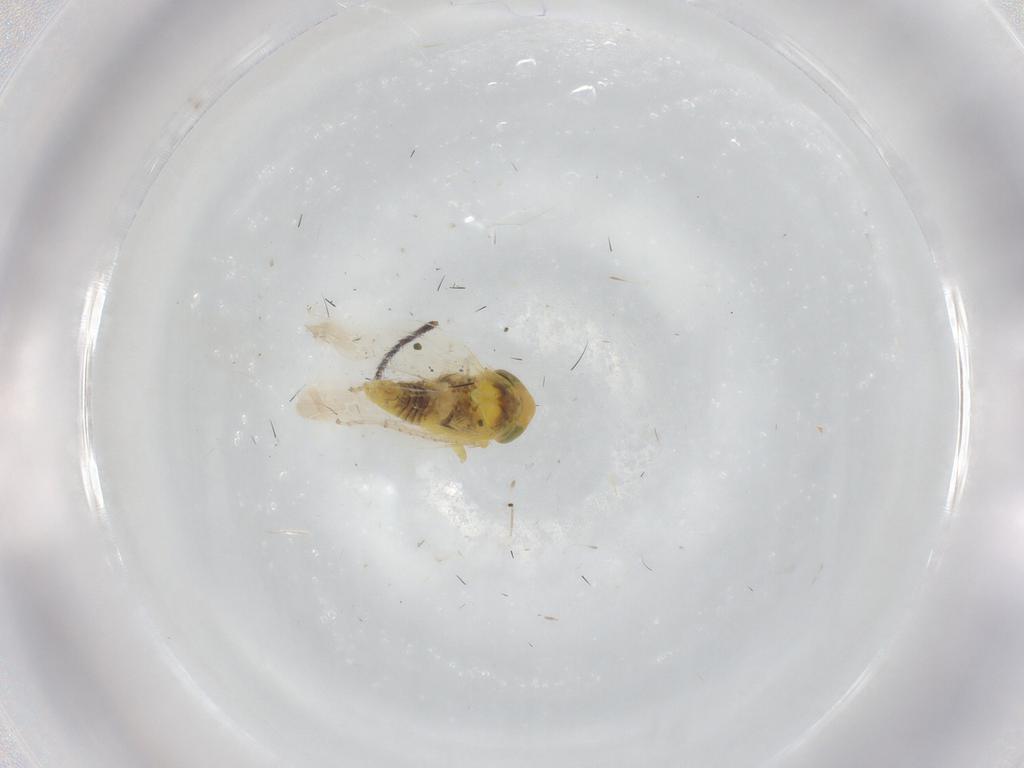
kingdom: Animalia
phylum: Arthropoda
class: Insecta
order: Hemiptera
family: Cicadellidae
